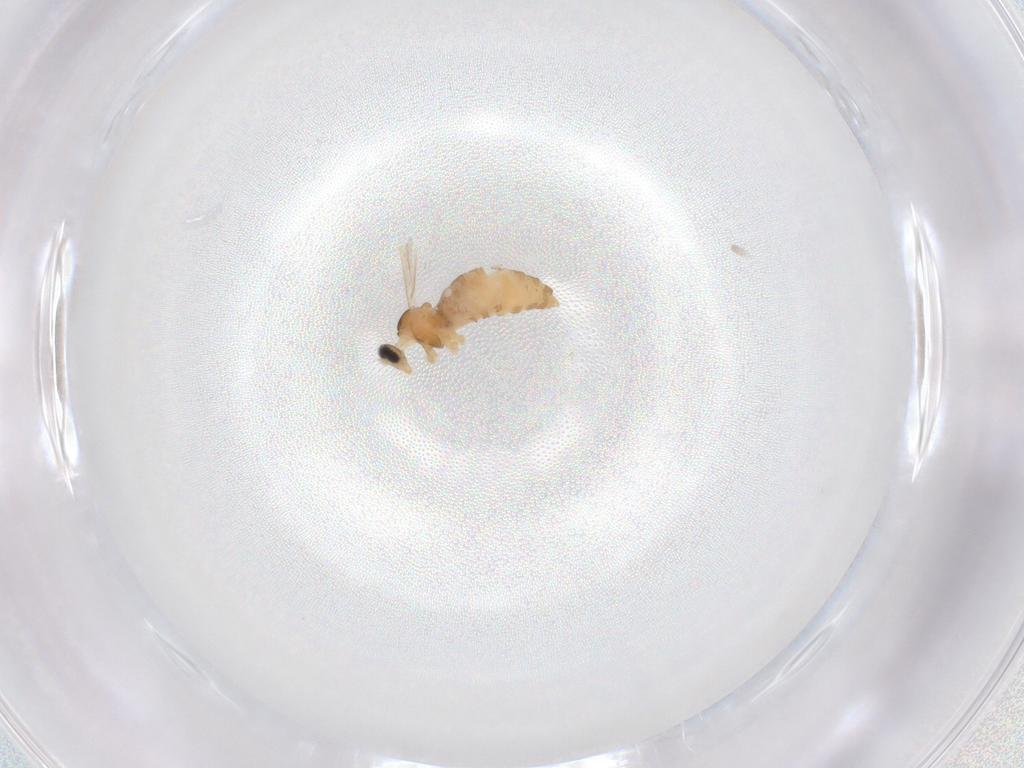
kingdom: Animalia
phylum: Arthropoda
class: Insecta
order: Diptera
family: Cecidomyiidae
